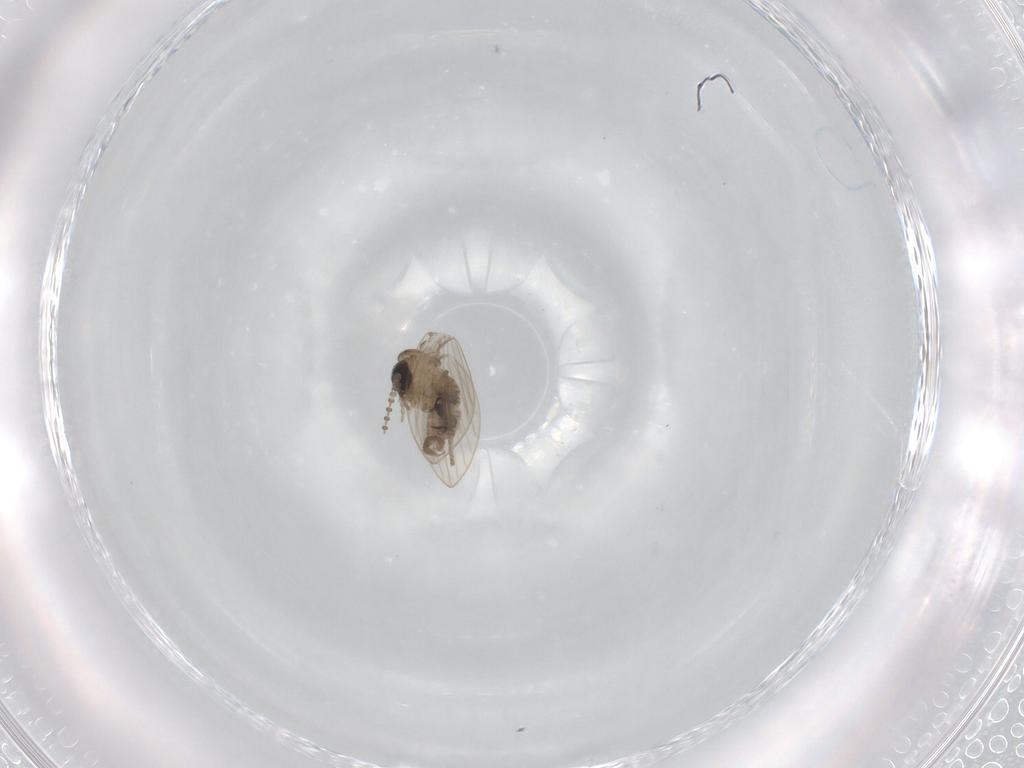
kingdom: Animalia
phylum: Arthropoda
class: Insecta
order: Diptera
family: Psychodidae
